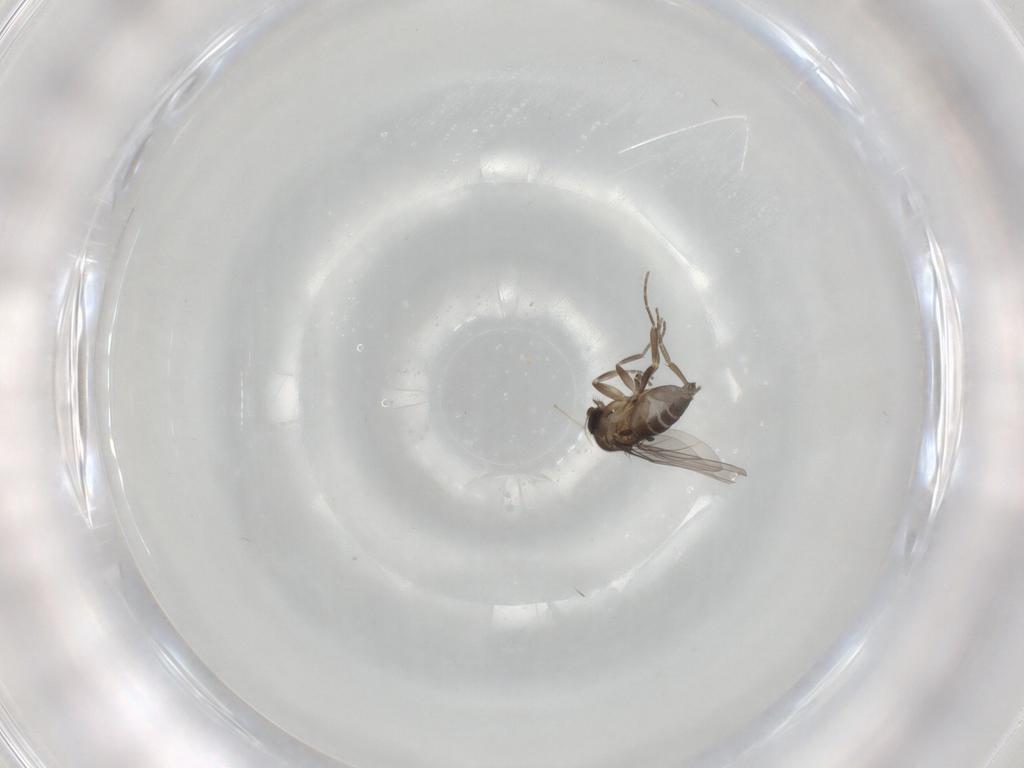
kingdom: Animalia
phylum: Arthropoda
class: Insecta
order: Diptera
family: Phoridae
